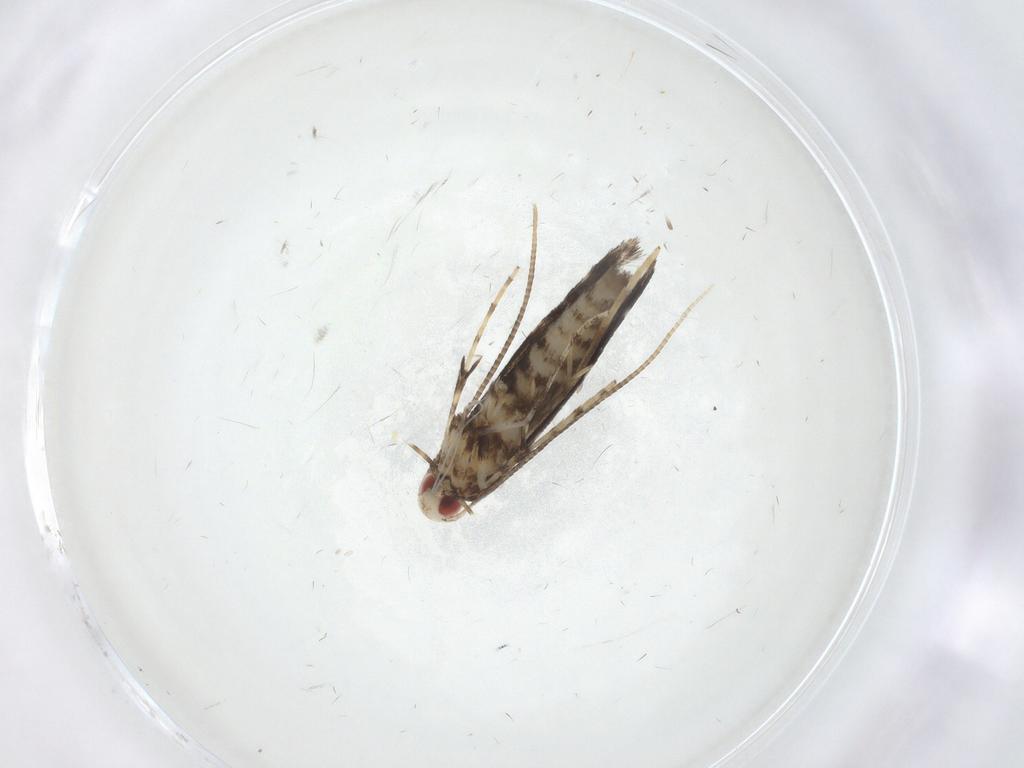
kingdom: Animalia
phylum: Arthropoda
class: Insecta
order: Lepidoptera
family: Gracillariidae
